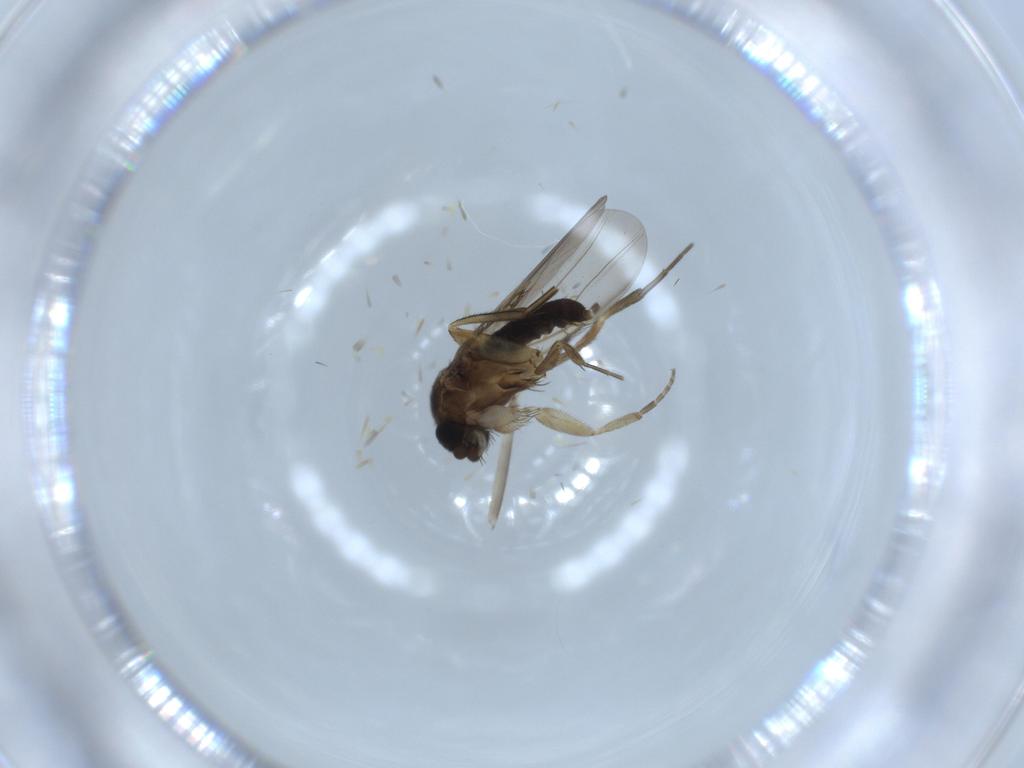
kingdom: Animalia
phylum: Arthropoda
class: Insecta
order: Diptera
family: Phoridae
